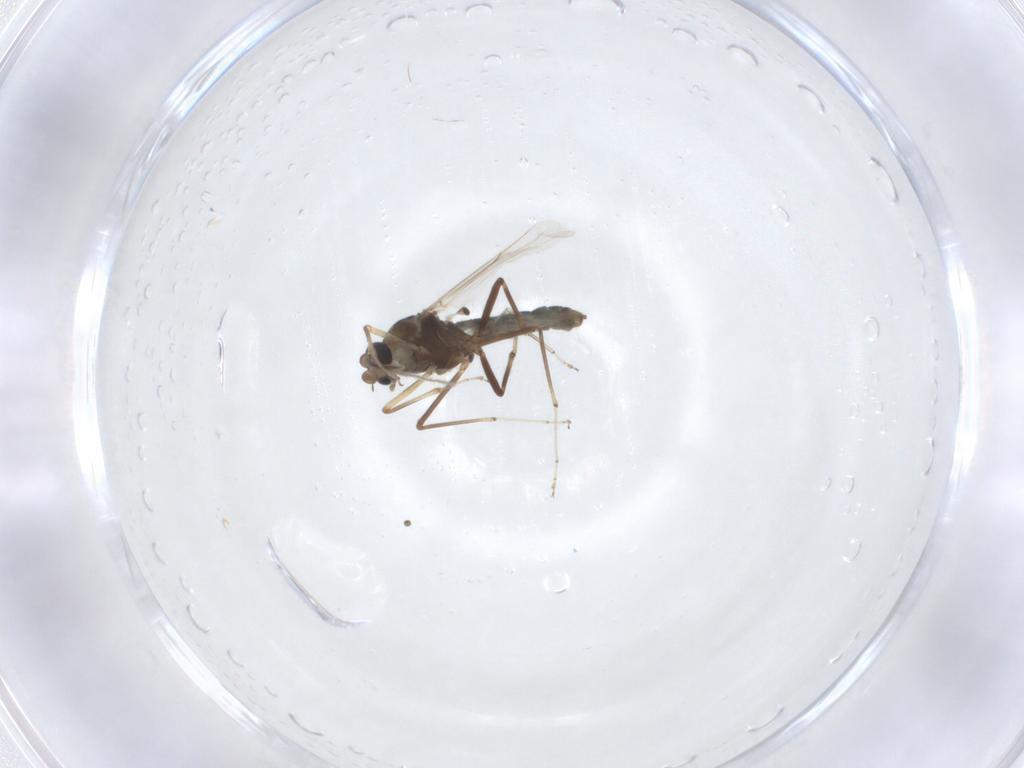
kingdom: Animalia
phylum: Arthropoda
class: Insecta
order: Diptera
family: Ceratopogonidae
